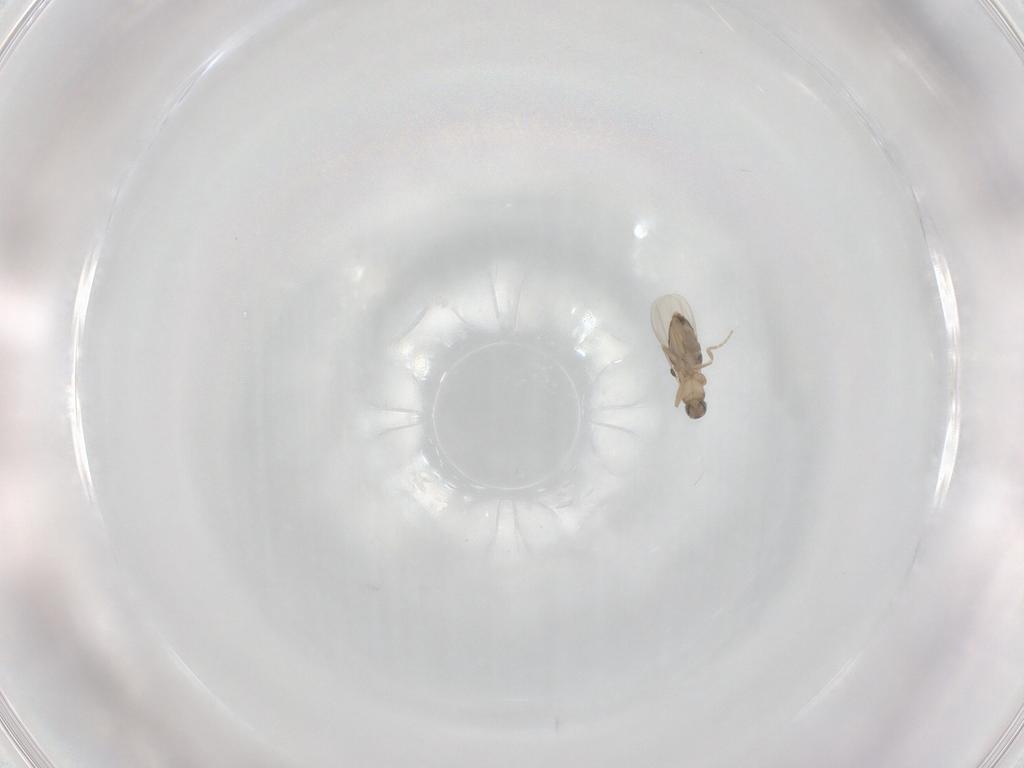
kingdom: Animalia
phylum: Arthropoda
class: Insecta
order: Diptera
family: Phoridae
